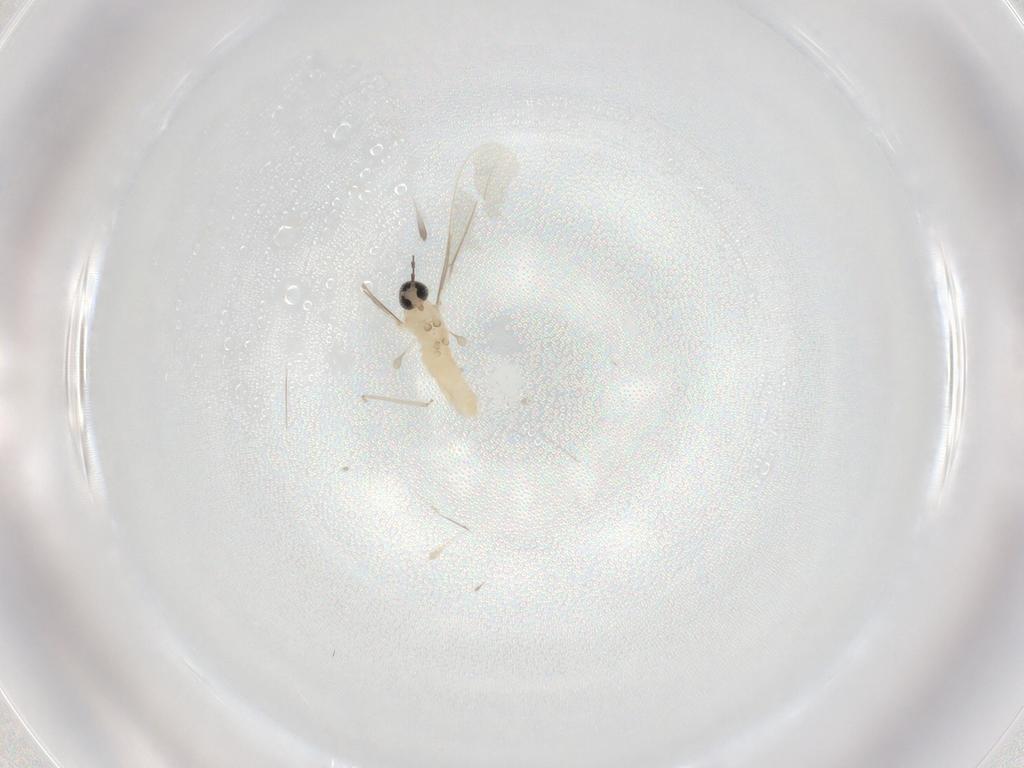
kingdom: Animalia
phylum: Arthropoda
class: Insecta
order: Diptera
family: Cecidomyiidae
